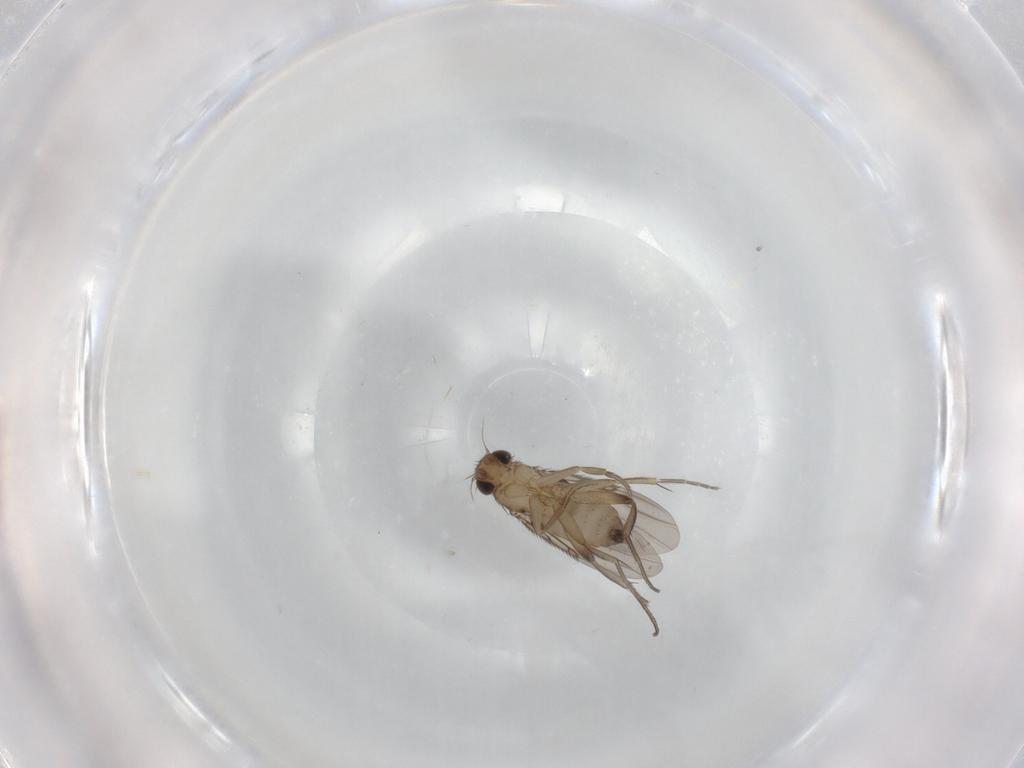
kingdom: Animalia
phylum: Arthropoda
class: Insecta
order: Diptera
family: Phoridae
